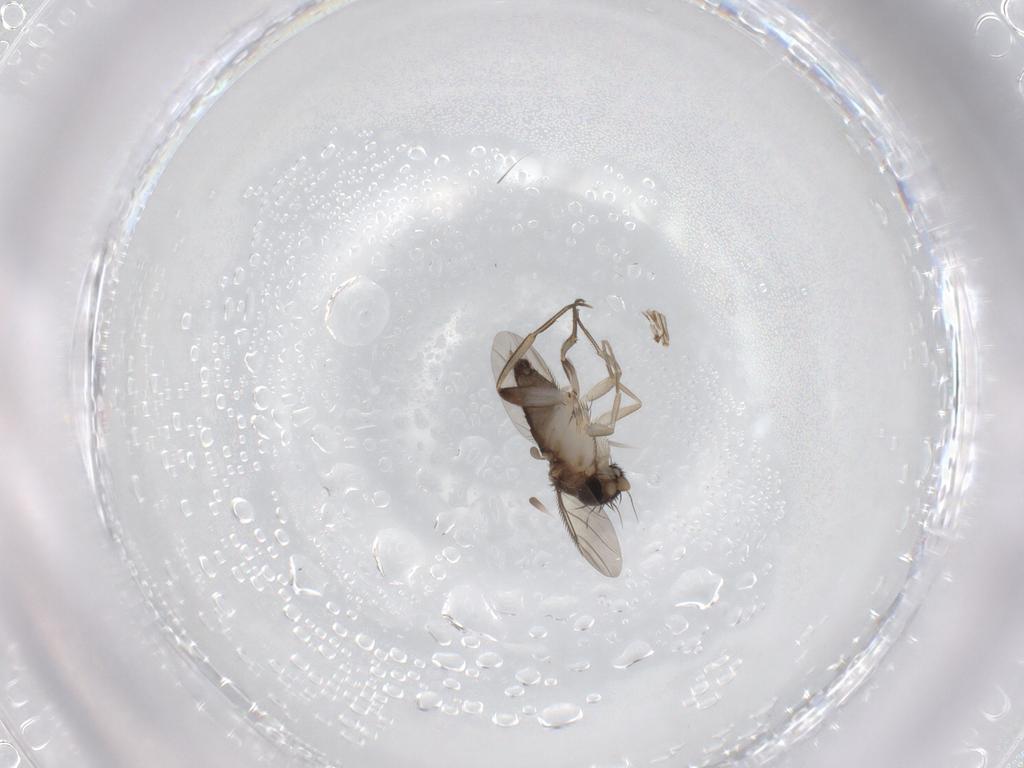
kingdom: Animalia
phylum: Arthropoda
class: Insecta
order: Diptera
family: Phoridae
